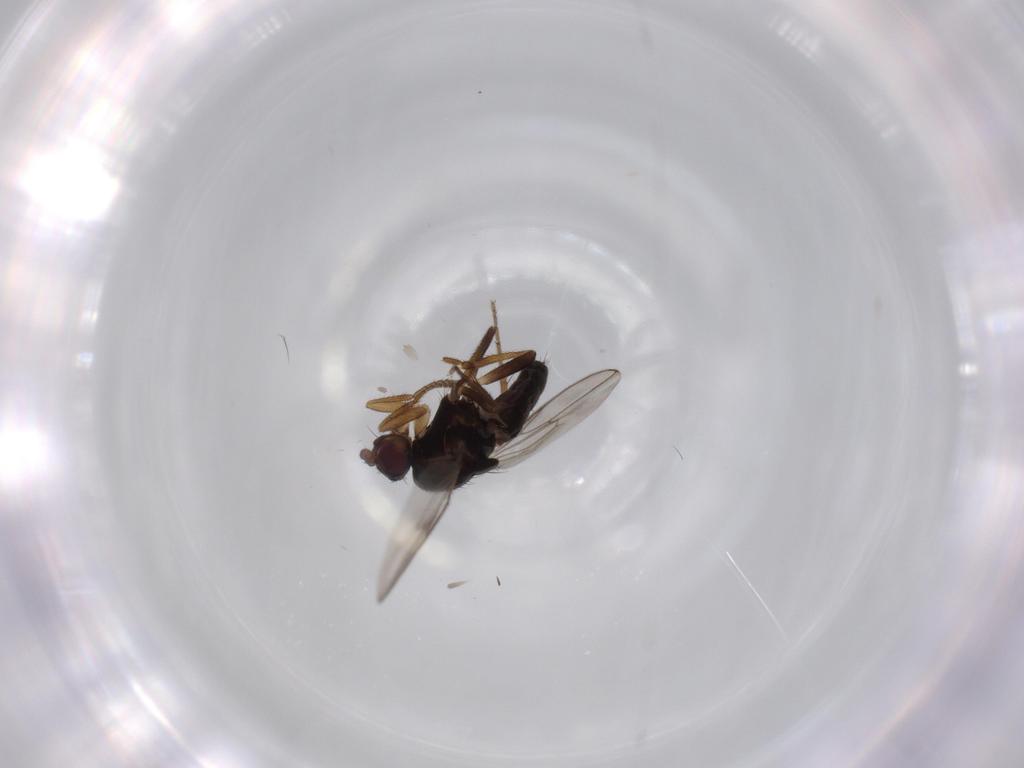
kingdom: Animalia
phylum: Arthropoda
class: Insecta
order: Diptera
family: Sphaeroceridae
